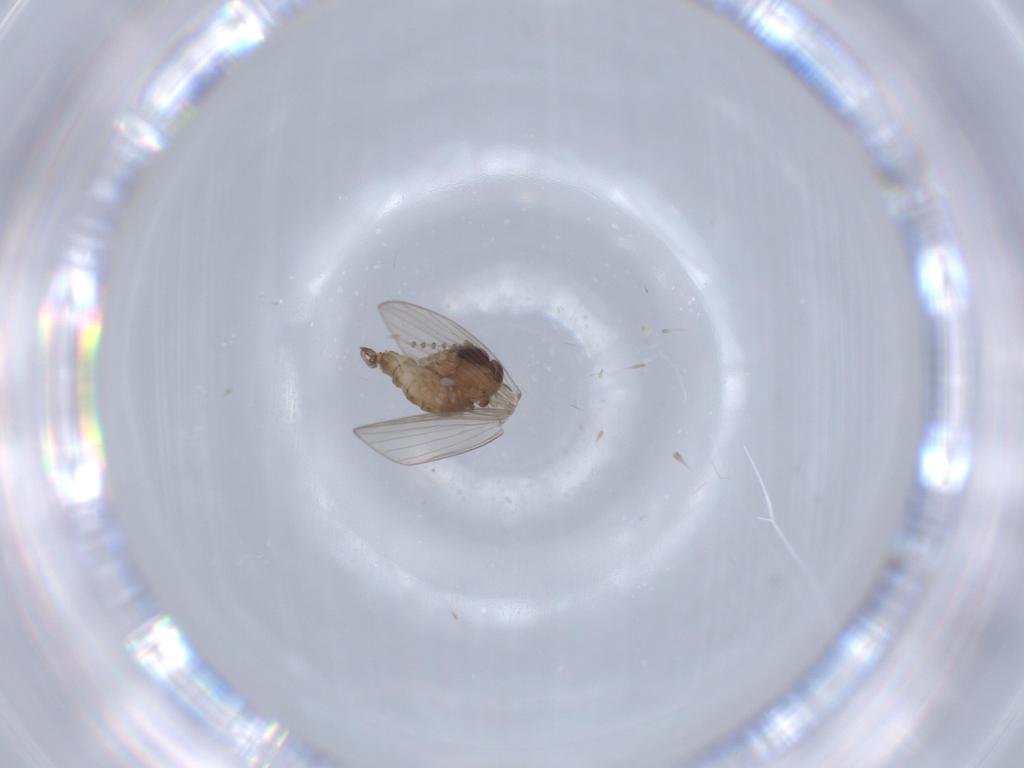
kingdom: Animalia
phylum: Arthropoda
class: Insecta
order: Diptera
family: Psychodidae
